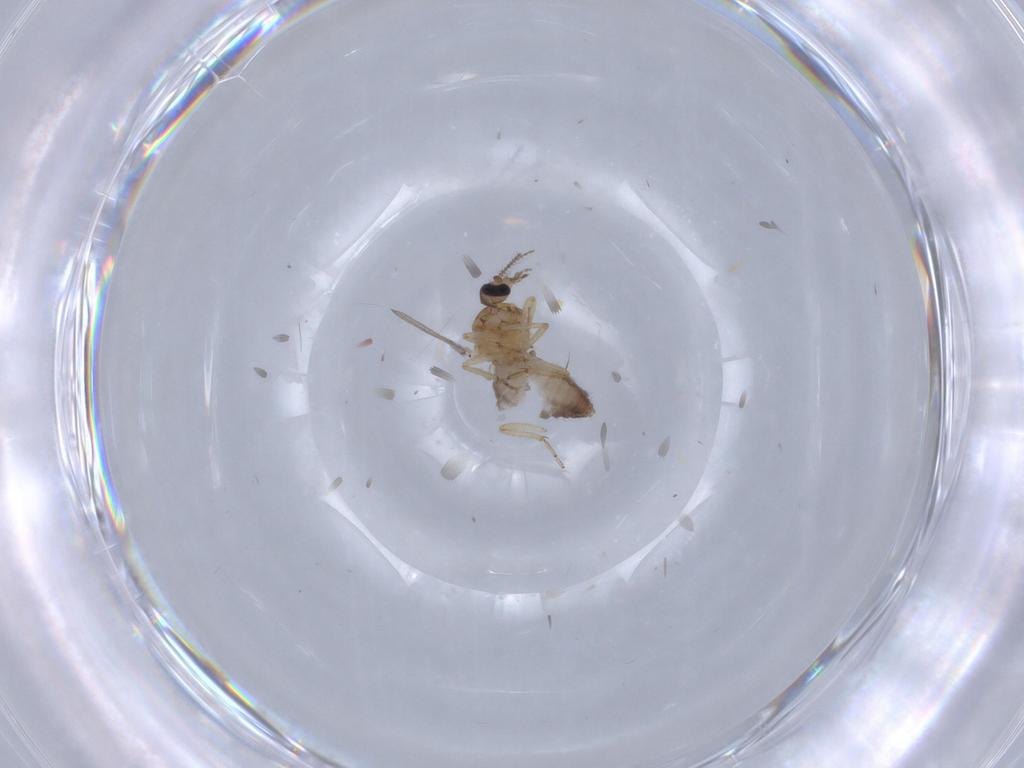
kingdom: Animalia
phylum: Arthropoda
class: Insecta
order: Diptera
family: Ceratopogonidae
